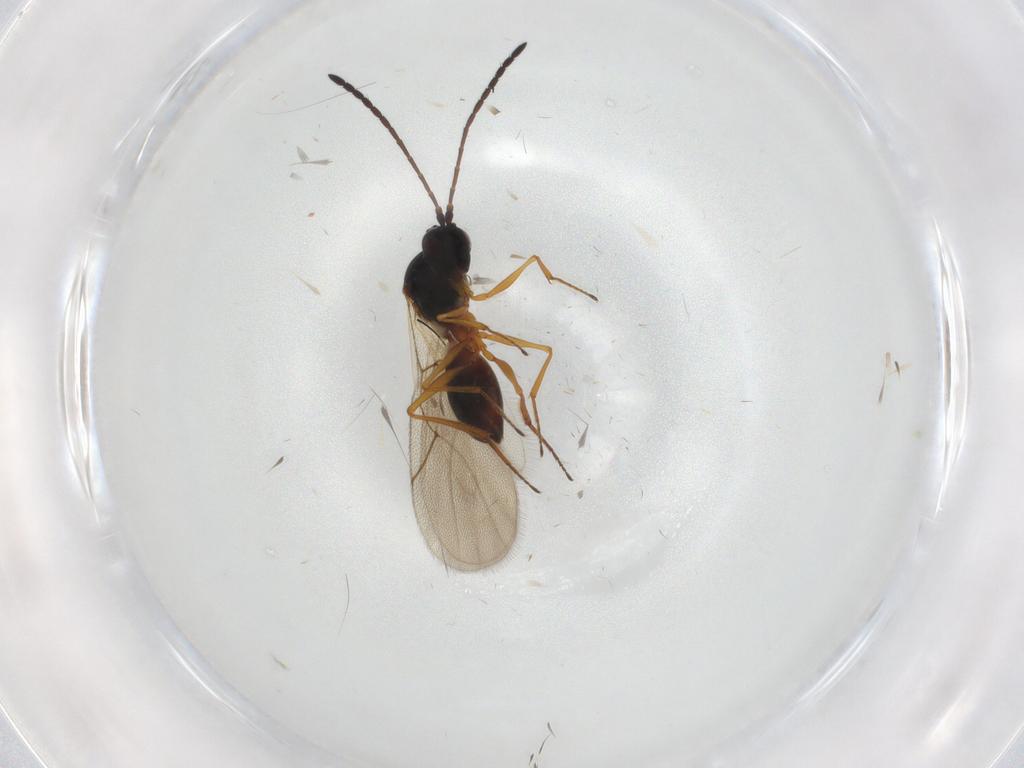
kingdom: Animalia
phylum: Arthropoda
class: Insecta
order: Hymenoptera
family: Figitidae
